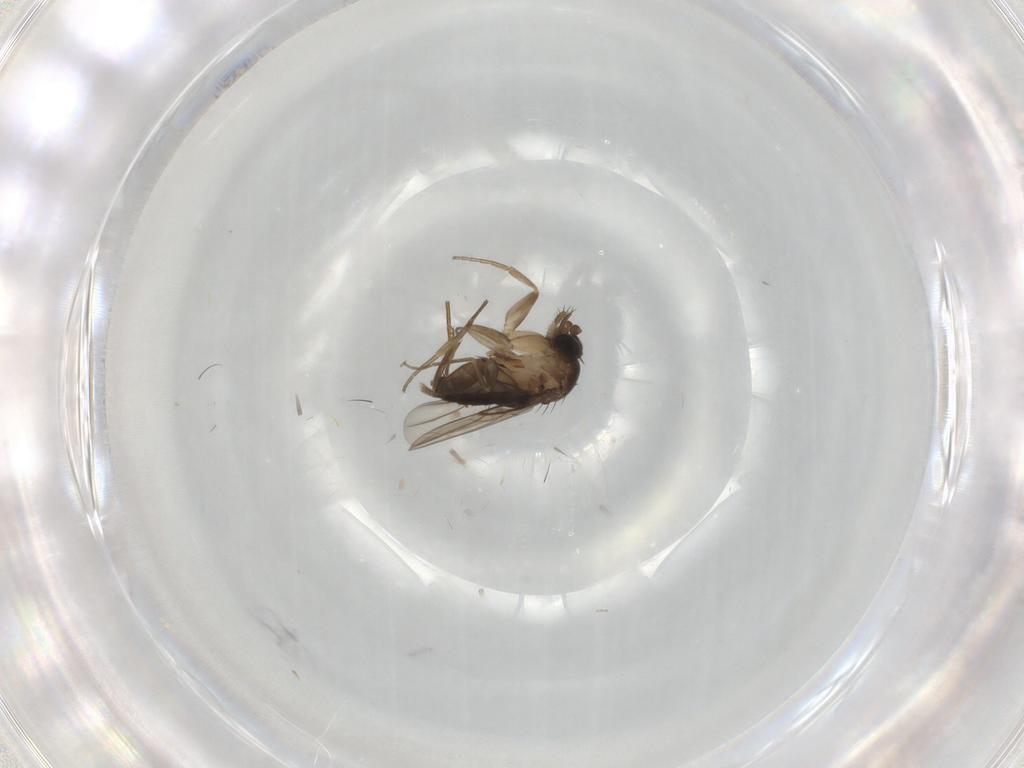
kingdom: Animalia
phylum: Arthropoda
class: Insecta
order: Diptera
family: Phoridae
